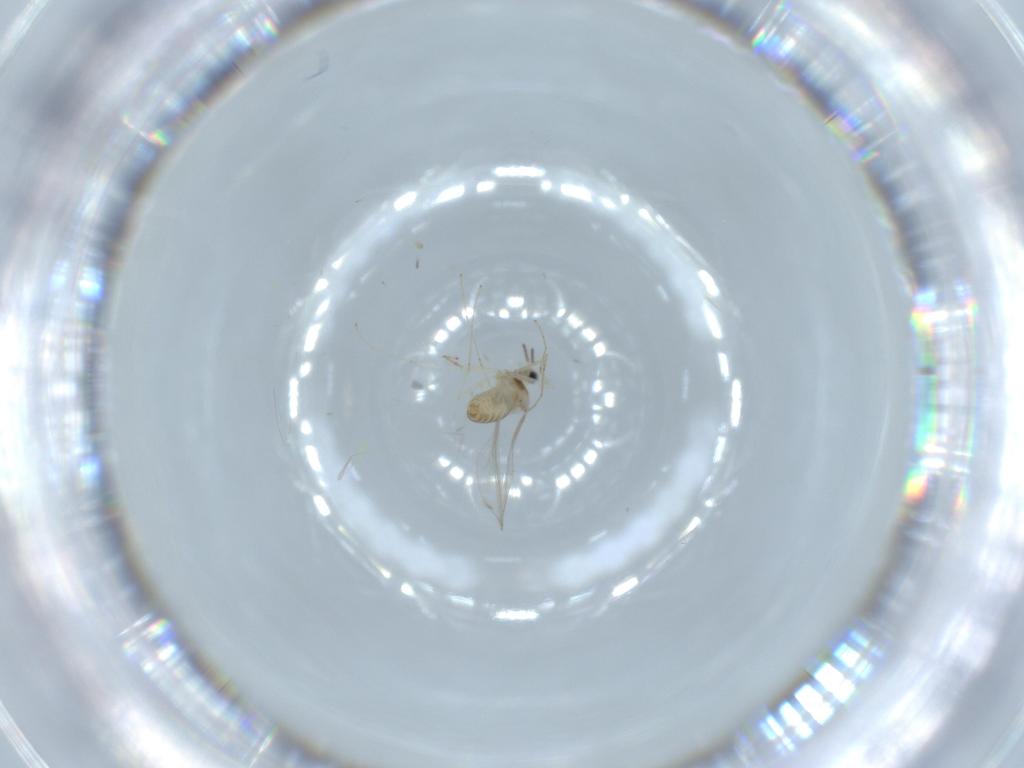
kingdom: Animalia
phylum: Arthropoda
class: Insecta
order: Diptera
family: Cecidomyiidae
